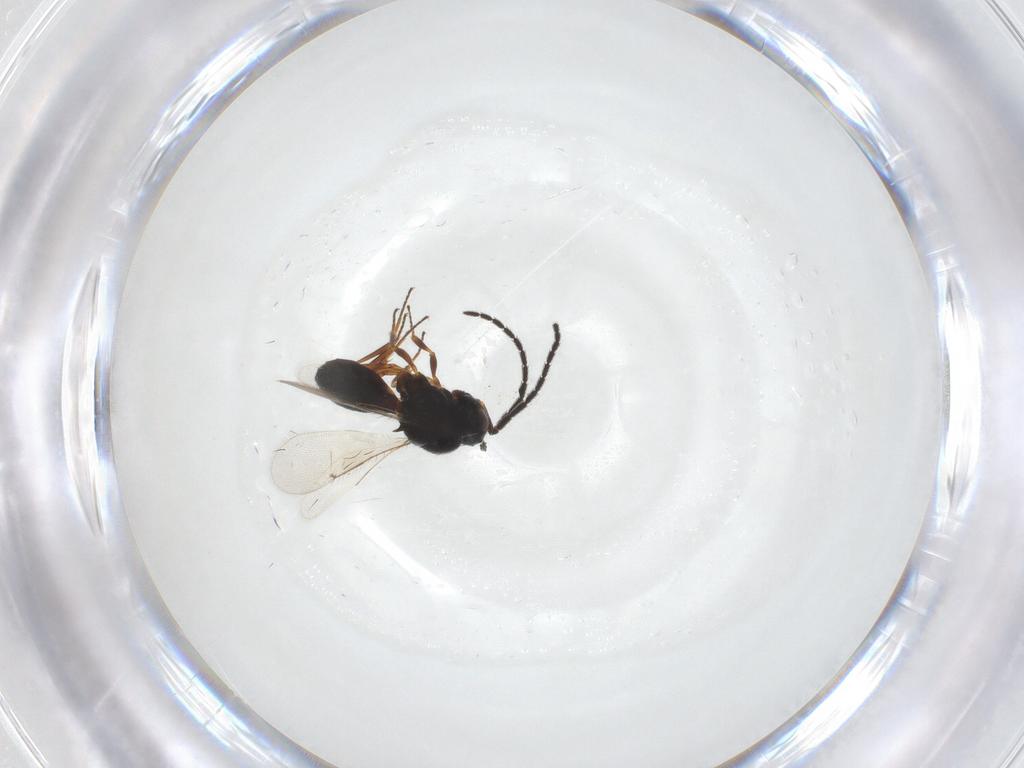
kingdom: Animalia
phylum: Arthropoda
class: Insecta
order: Hymenoptera
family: Scelionidae
